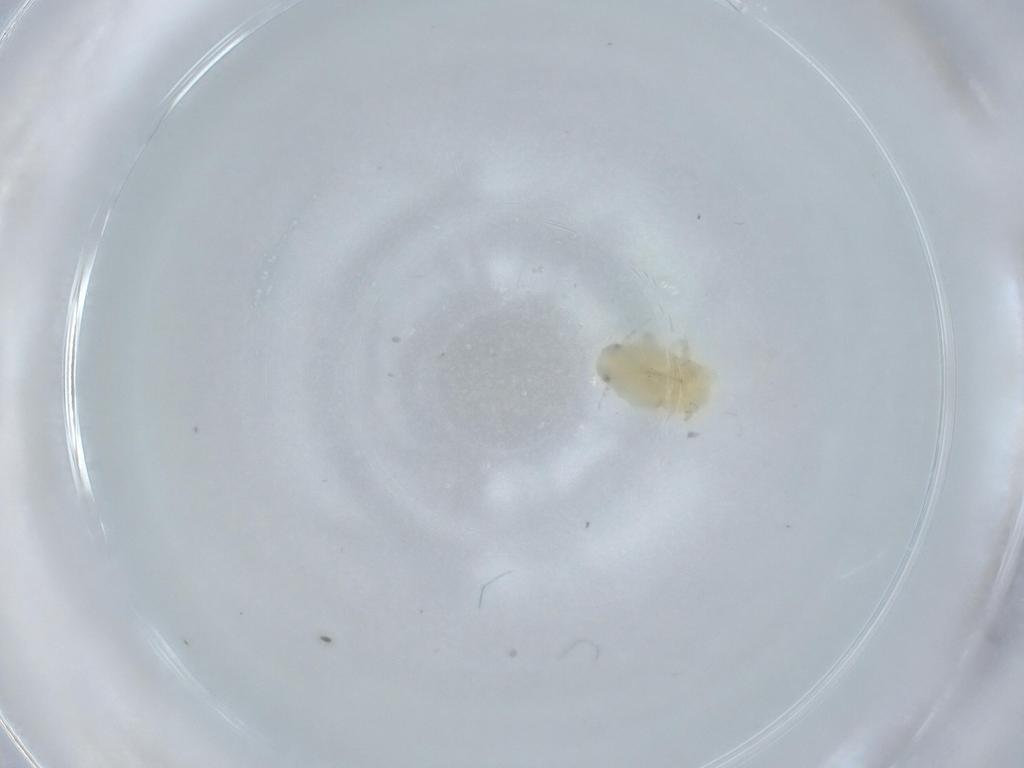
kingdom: Animalia
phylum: Arthropoda
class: Insecta
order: Hemiptera
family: Flatidae
